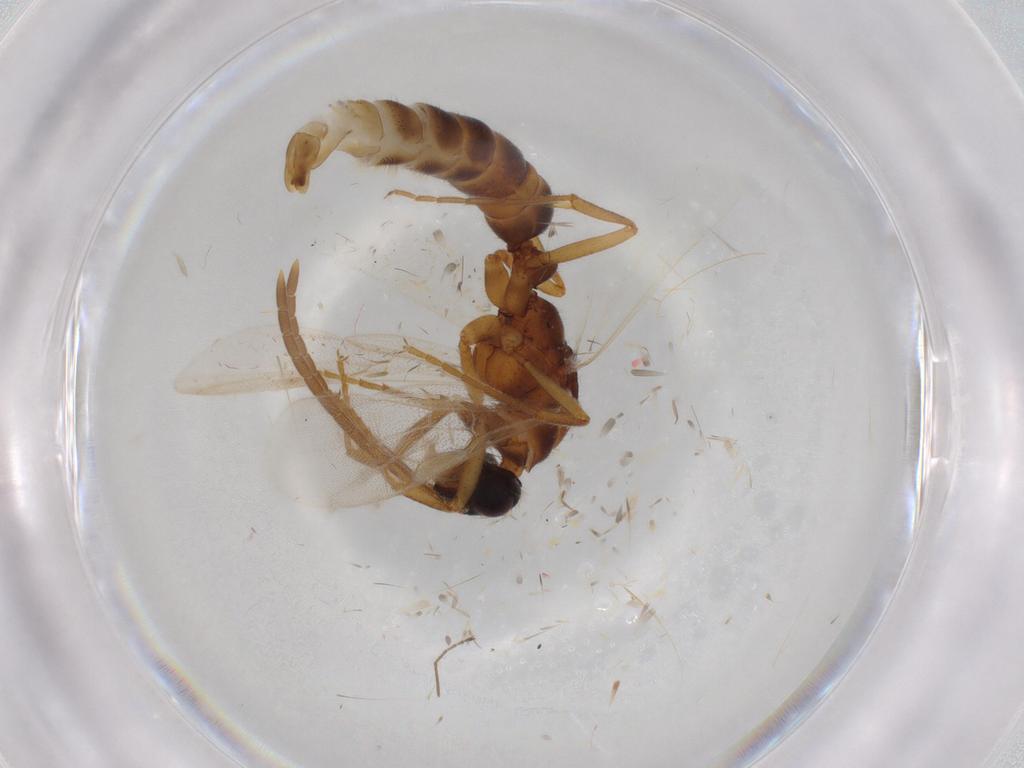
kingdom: Animalia
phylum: Arthropoda
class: Insecta
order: Hymenoptera
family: Formicidae
